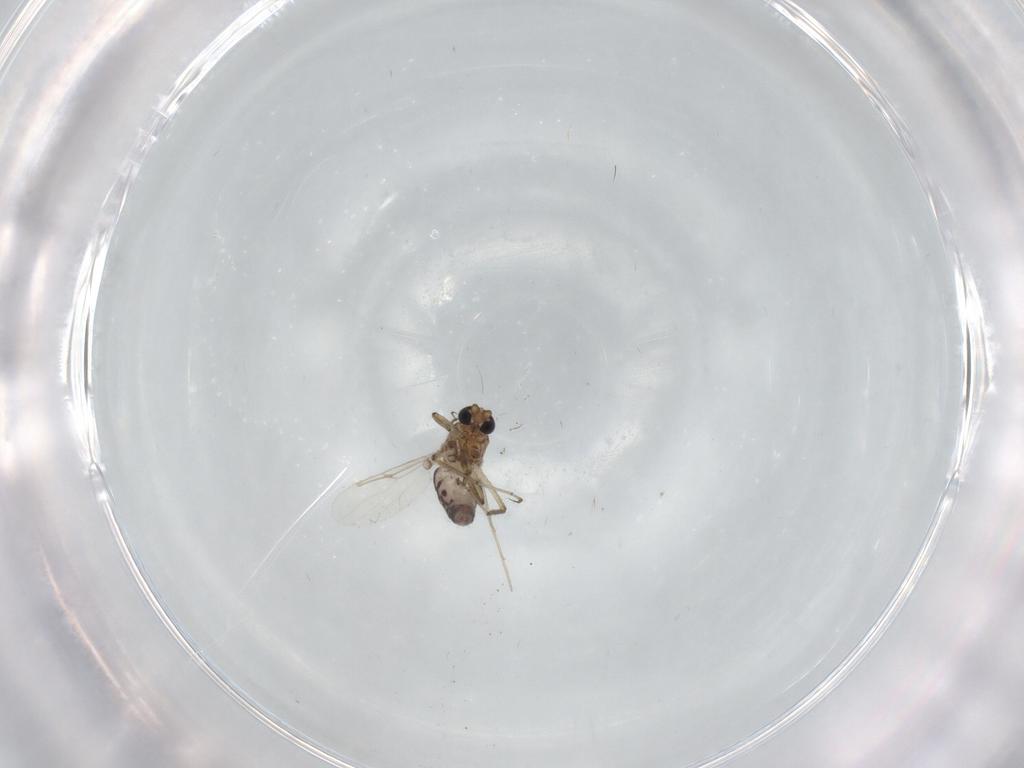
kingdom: Animalia
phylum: Arthropoda
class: Insecta
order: Diptera
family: Ceratopogonidae
